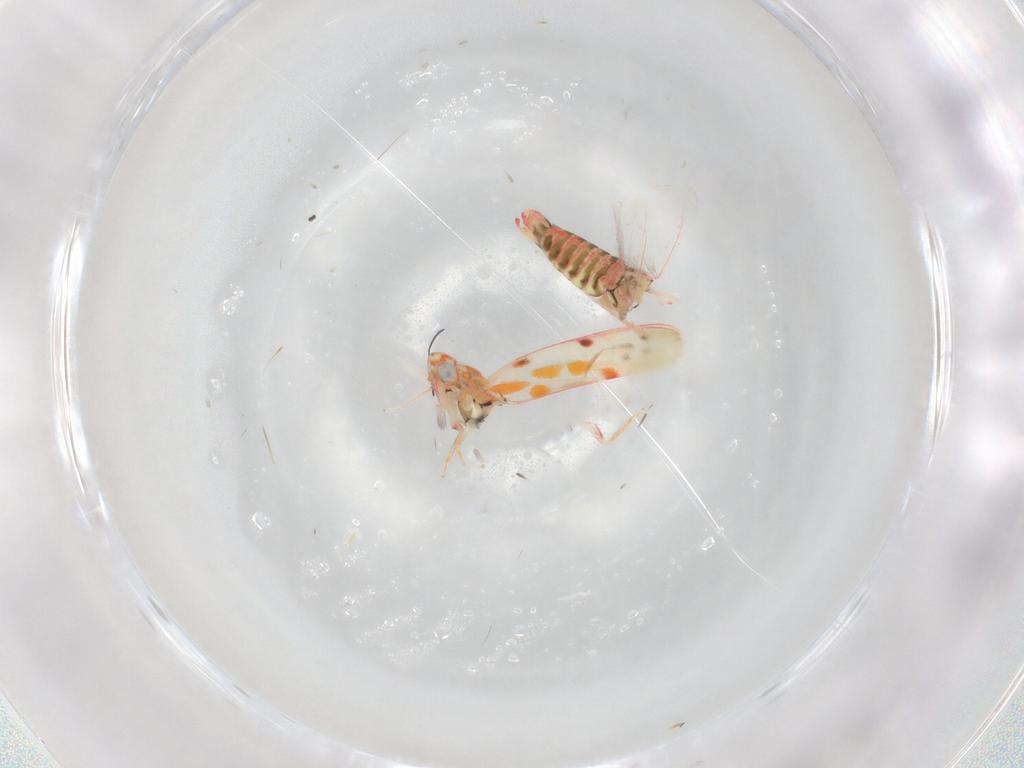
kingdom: Animalia
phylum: Arthropoda
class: Insecta
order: Hemiptera
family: Cicadellidae
